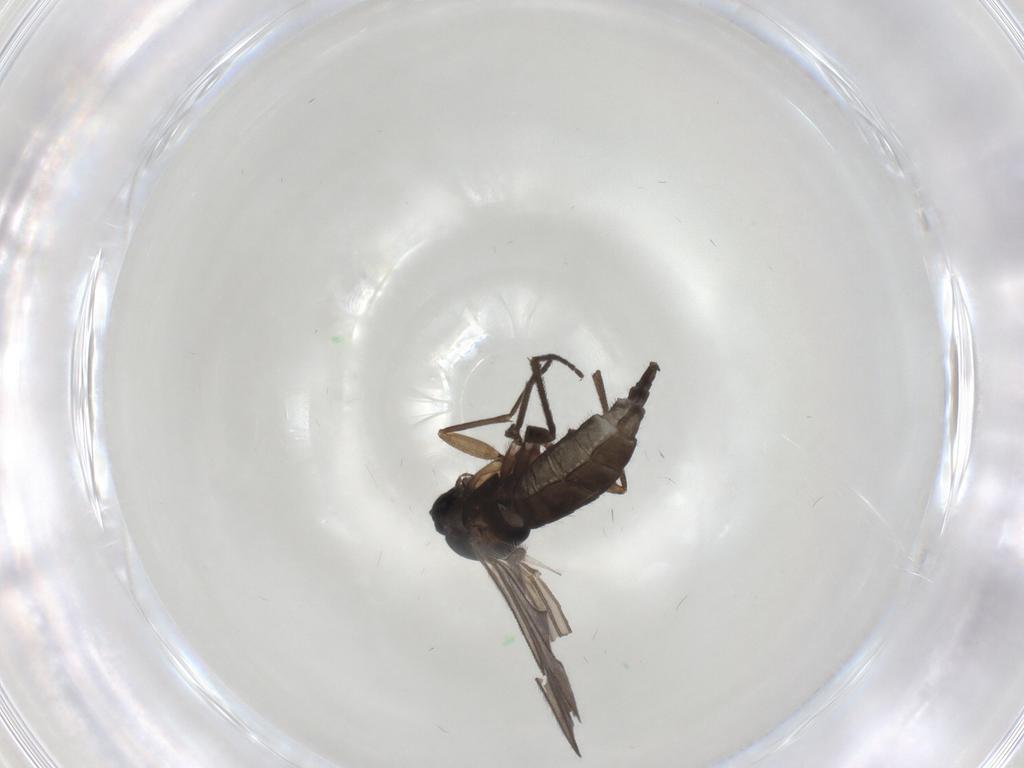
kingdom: Animalia
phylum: Arthropoda
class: Insecta
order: Diptera
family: Sciaridae
